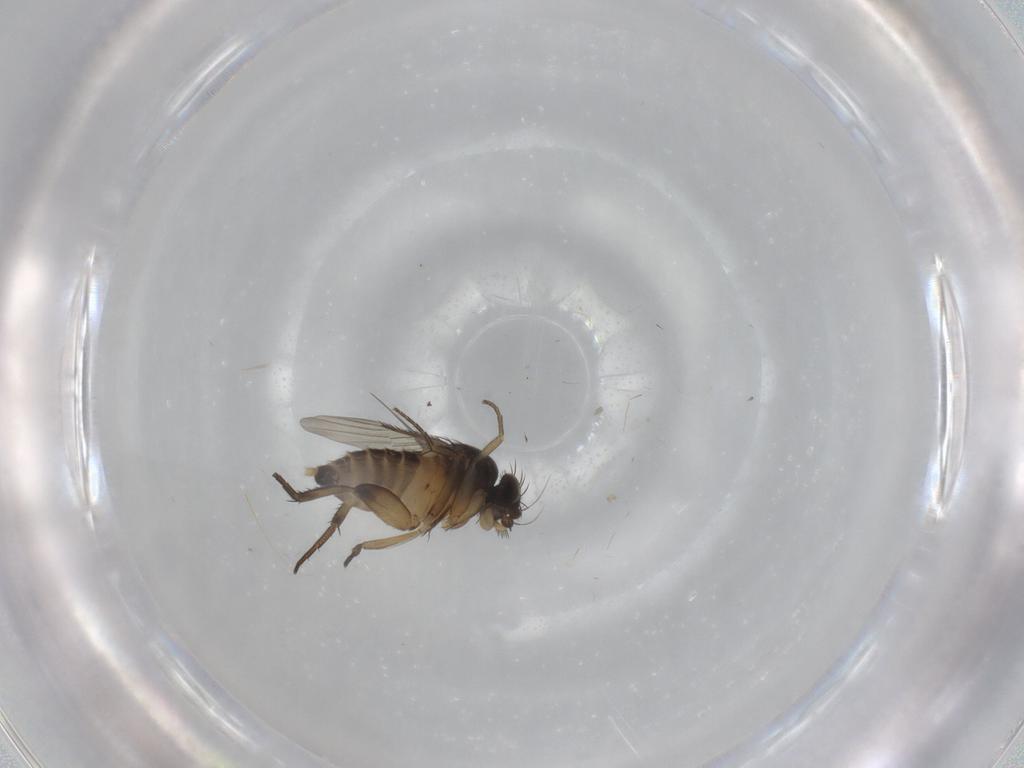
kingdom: Animalia
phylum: Arthropoda
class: Insecta
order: Diptera
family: Phoridae
